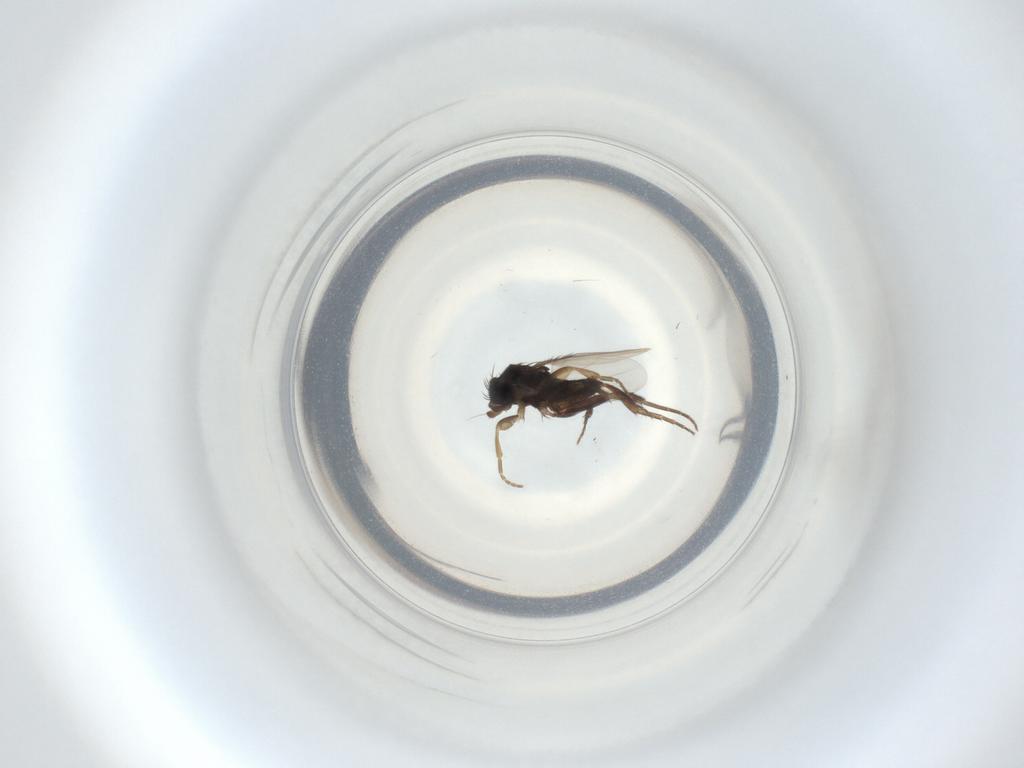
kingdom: Animalia
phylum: Arthropoda
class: Insecta
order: Diptera
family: Phoridae
